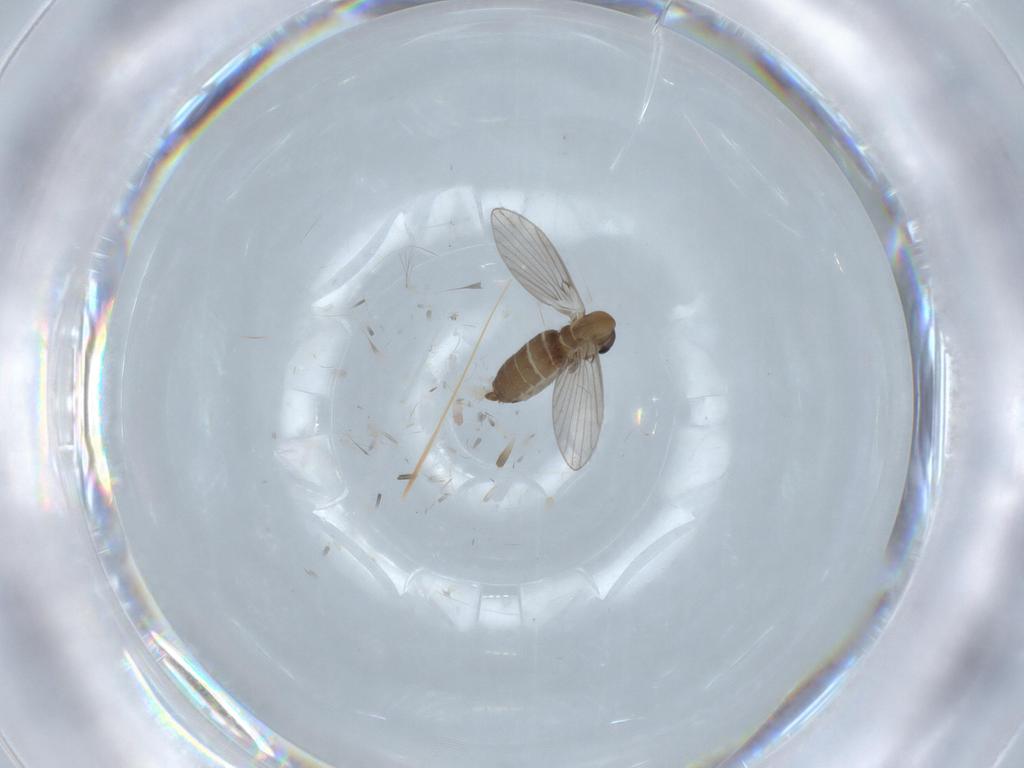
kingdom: Animalia
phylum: Arthropoda
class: Insecta
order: Diptera
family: Psychodidae
